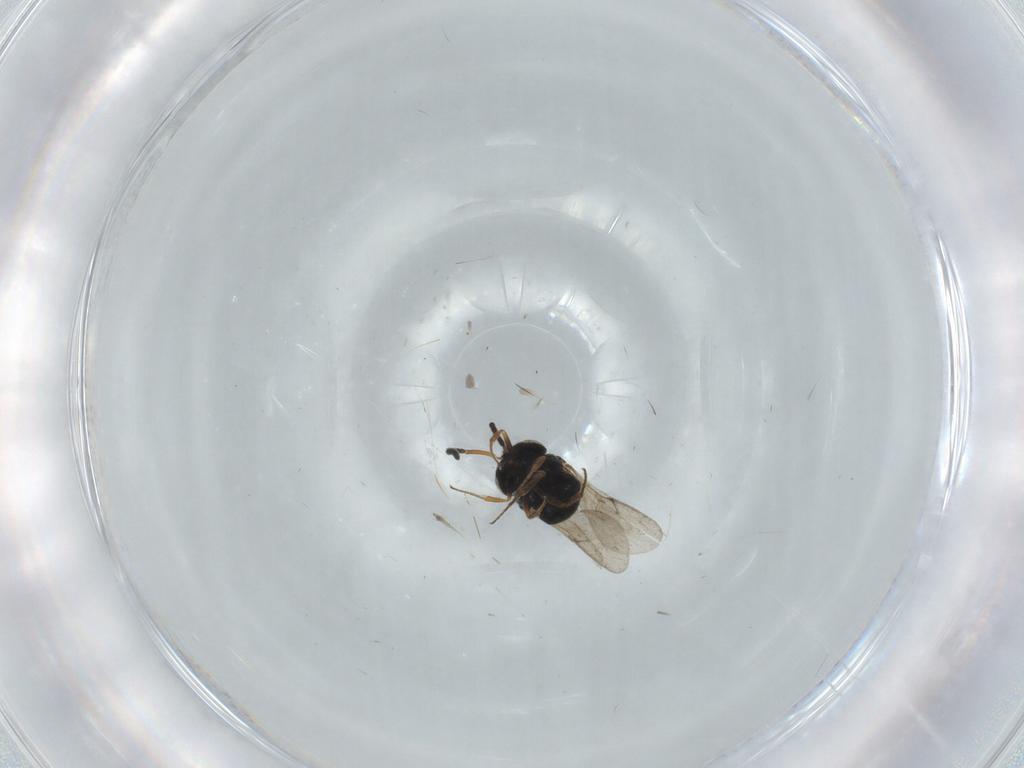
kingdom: Animalia
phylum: Arthropoda
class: Insecta
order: Hymenoptera
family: Scelionidae
